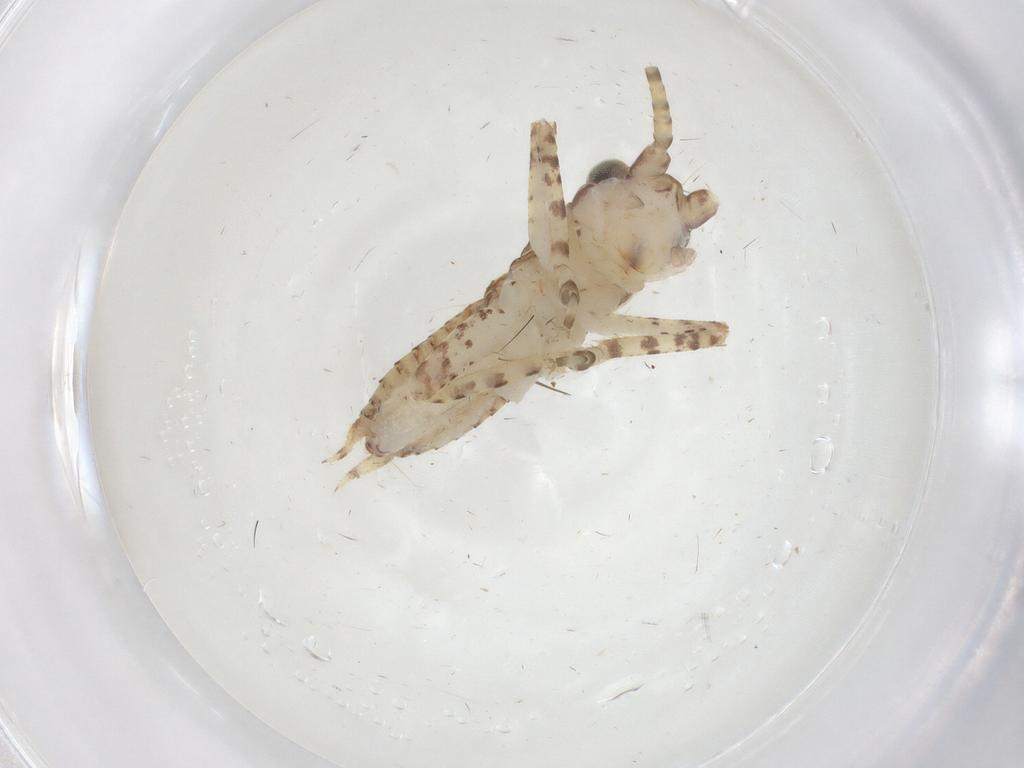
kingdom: Animalia
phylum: Arthropoda
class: Insecta
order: Orthoptera
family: Gryllidae
